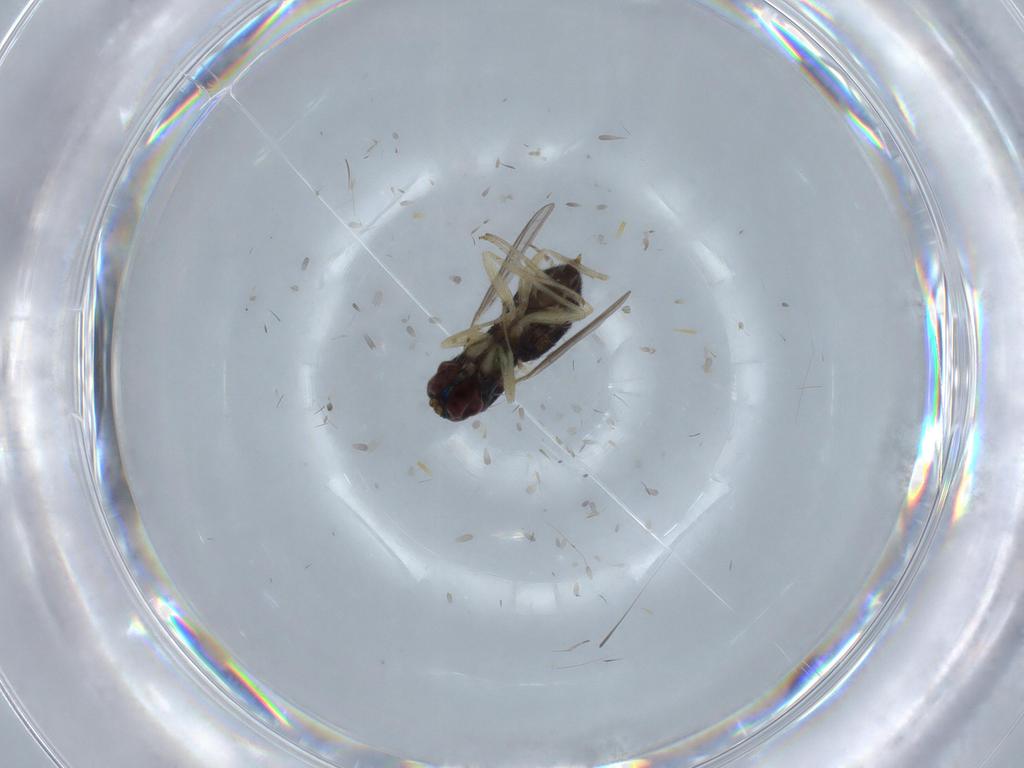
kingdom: Animalia
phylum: Arthropoda
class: Insecta
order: Diptera
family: Dolichopodidae
